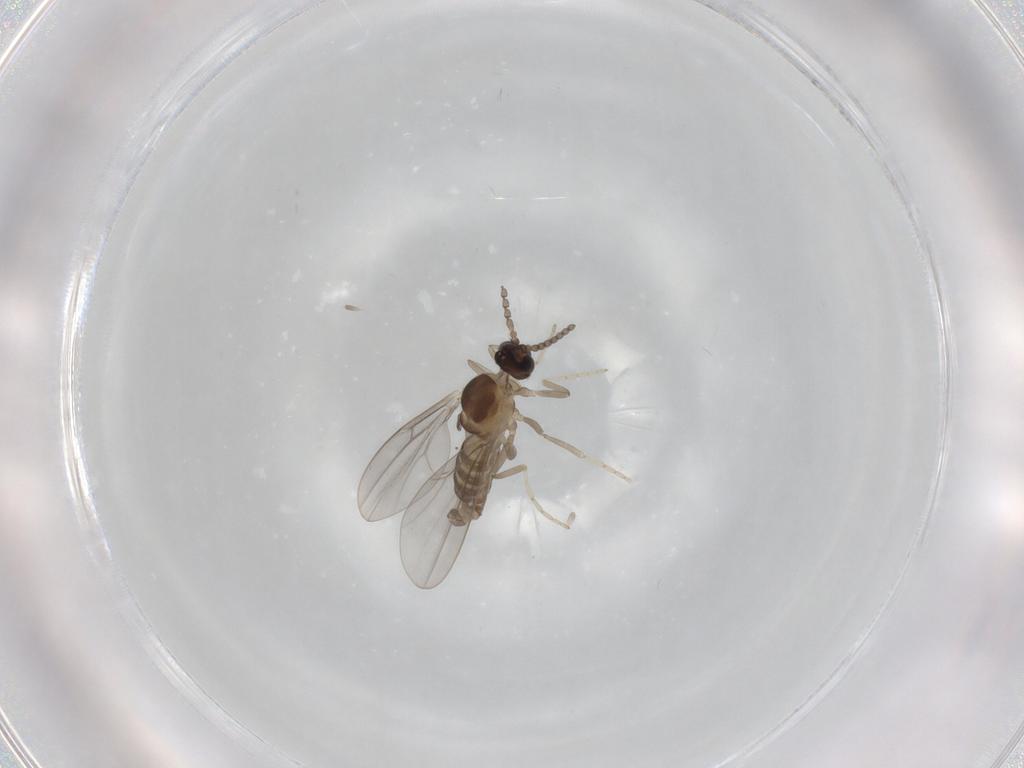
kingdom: Animalia
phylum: Arthropoda
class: Insecta
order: Diptera
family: Cecidomyiidae
